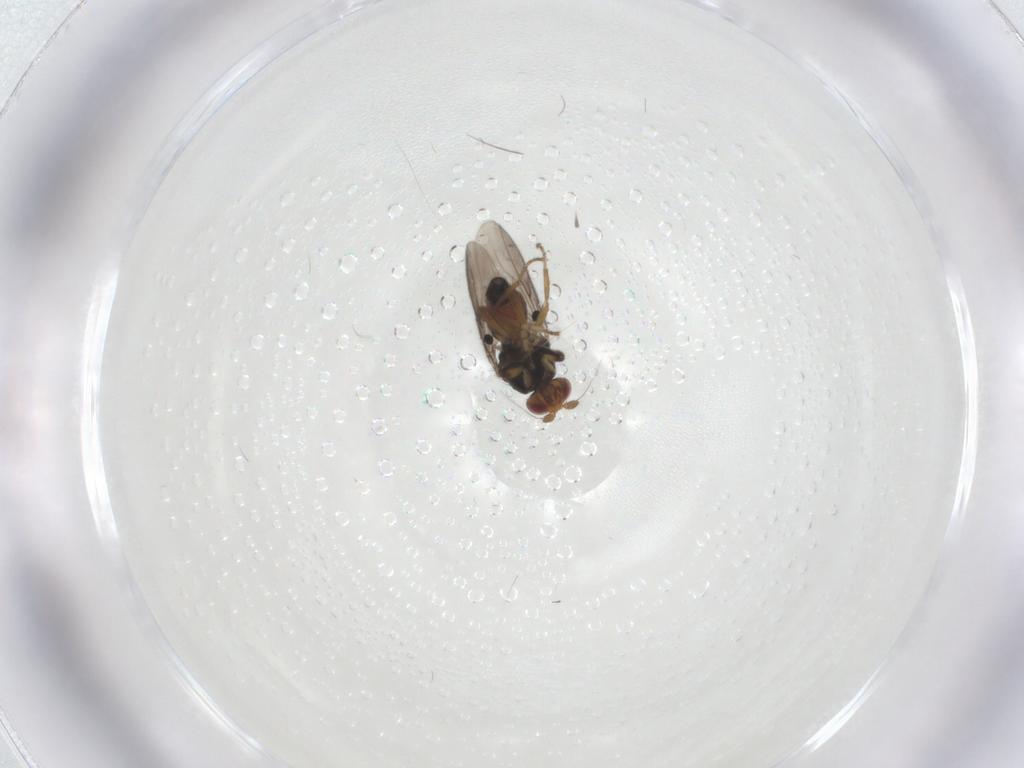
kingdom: Animalia
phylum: Arthropoda
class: Insecta
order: Diptera
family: Sphaeroceridae
